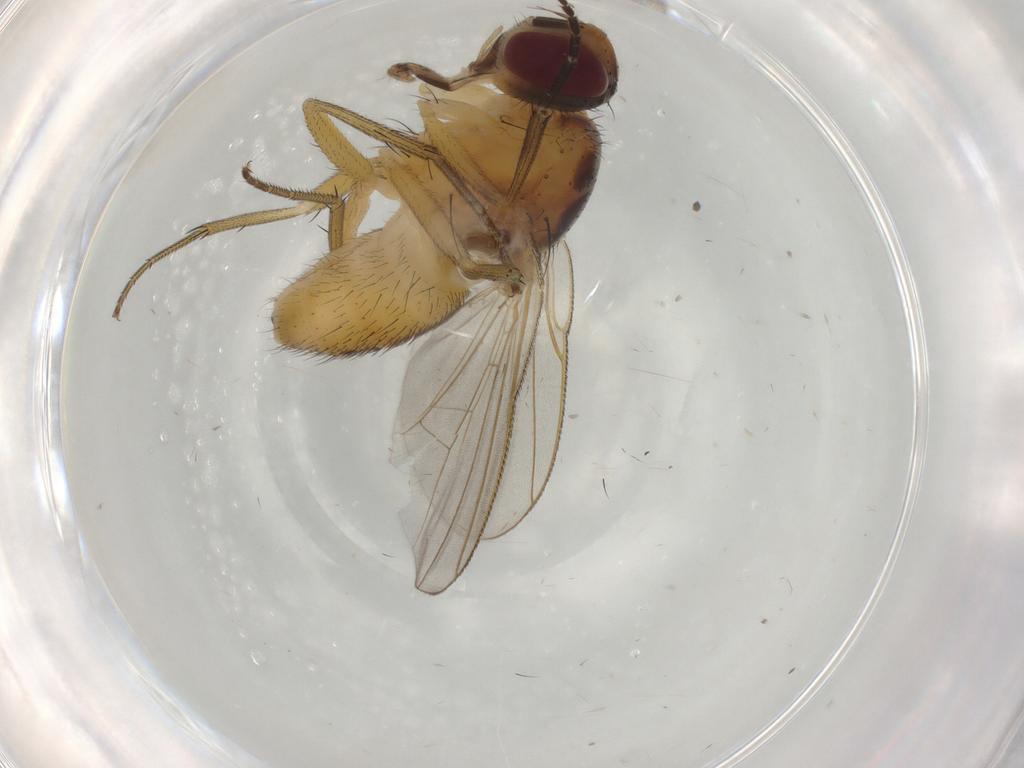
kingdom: Animalia
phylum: Arthropoda
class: Insecta
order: Diptera
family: Muscidae
